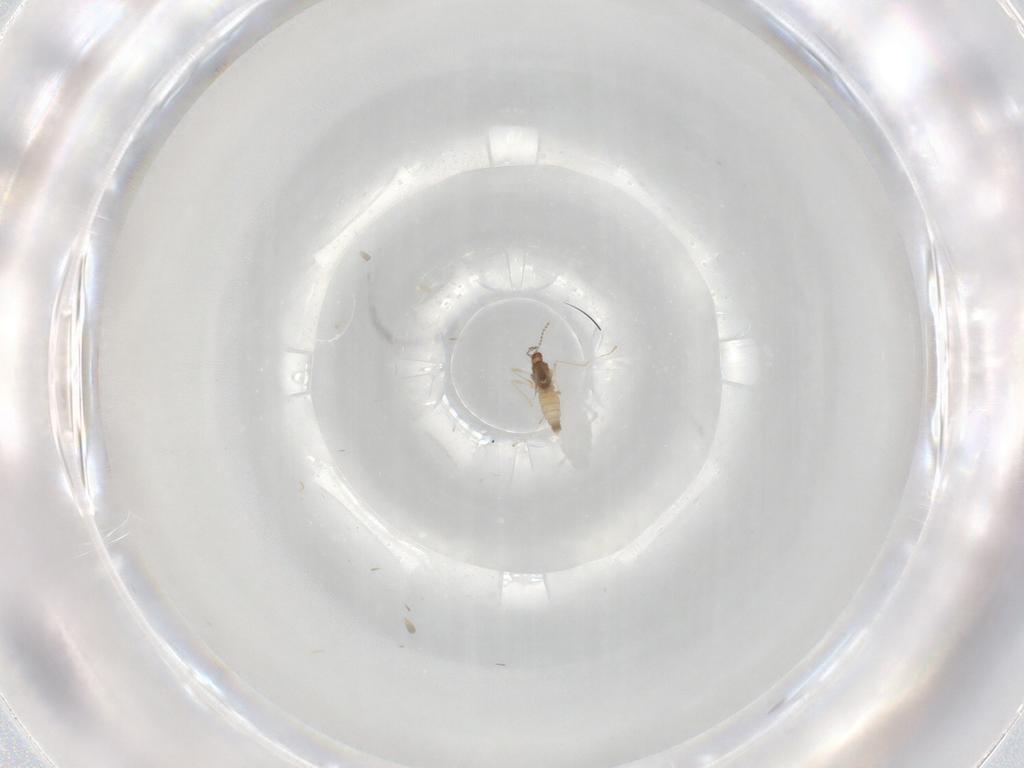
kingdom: Animalia
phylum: Arthropoda
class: Insecta
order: Diptera
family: Cecidomyiidae
